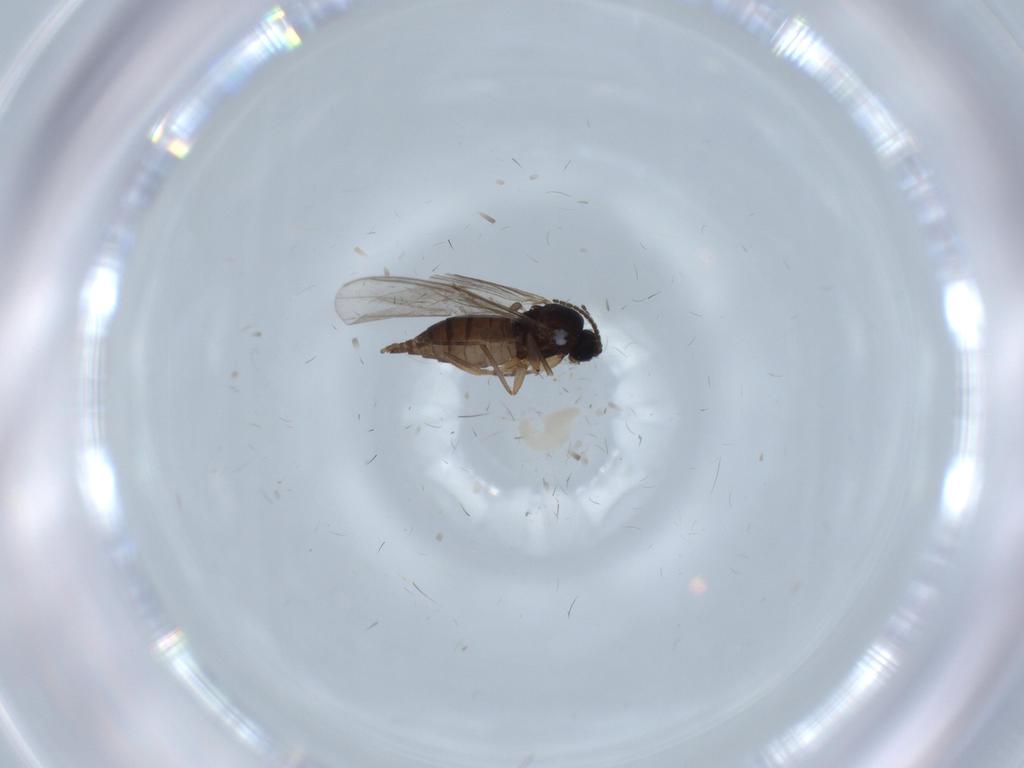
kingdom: Animalia
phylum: Arthropoda
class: Insecta
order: Diptera
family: Sciaridae
